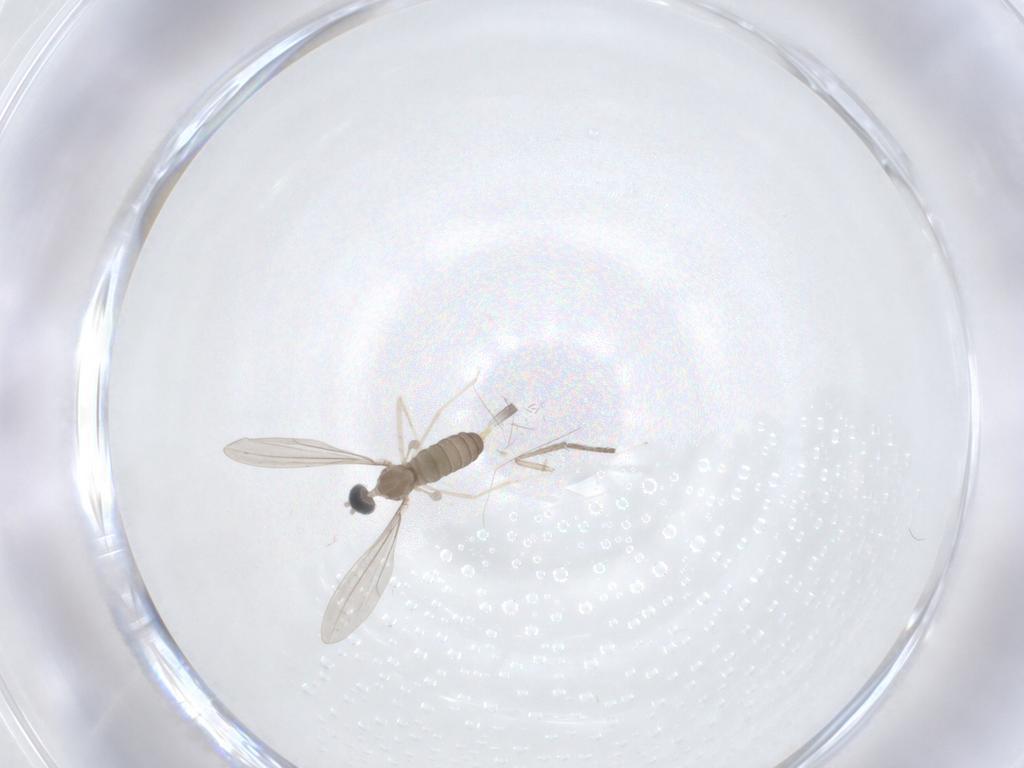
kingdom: Animalia
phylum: Arthropoda
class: Insecta
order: Diptera
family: Cecidomyiidae
